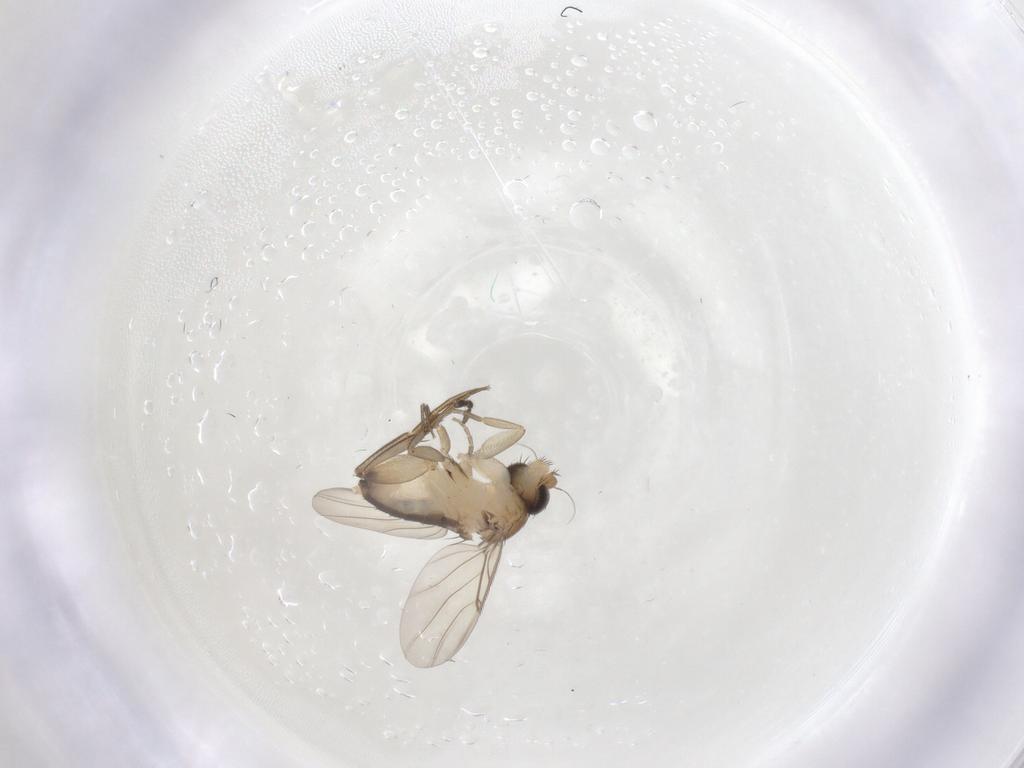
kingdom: Animalia
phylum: Arthropoda
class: Insecta
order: Diptera
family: Phoridae
